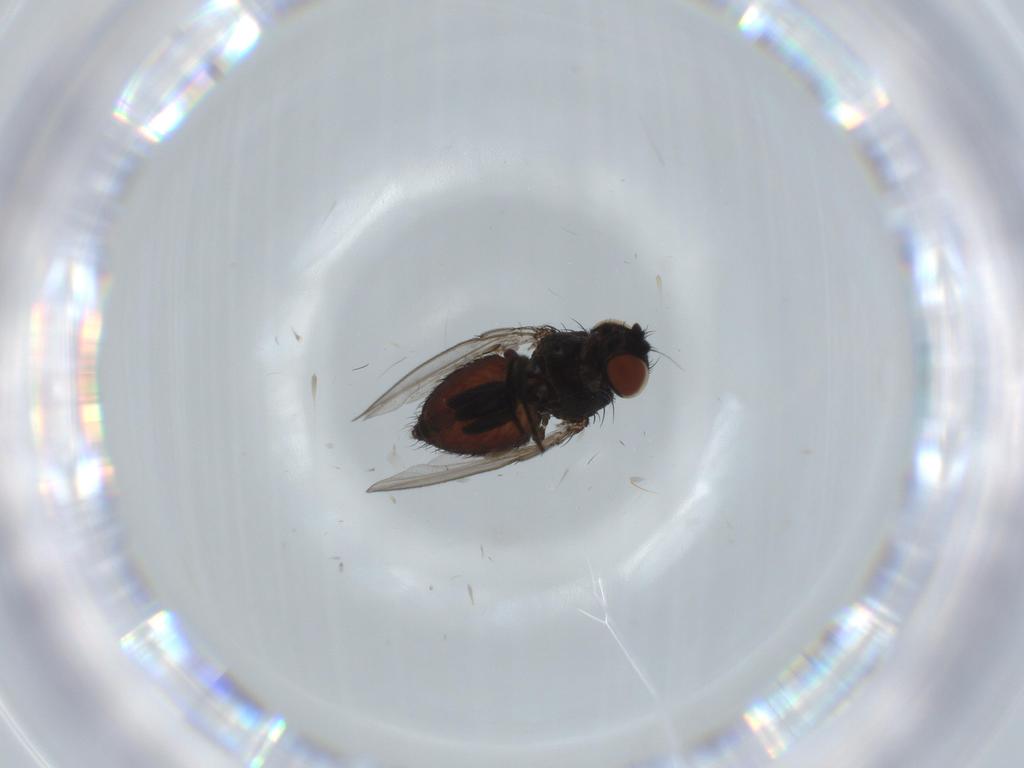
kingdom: Animalia
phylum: Arthropoda
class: Insecta
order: Diptera
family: Milichiidae
